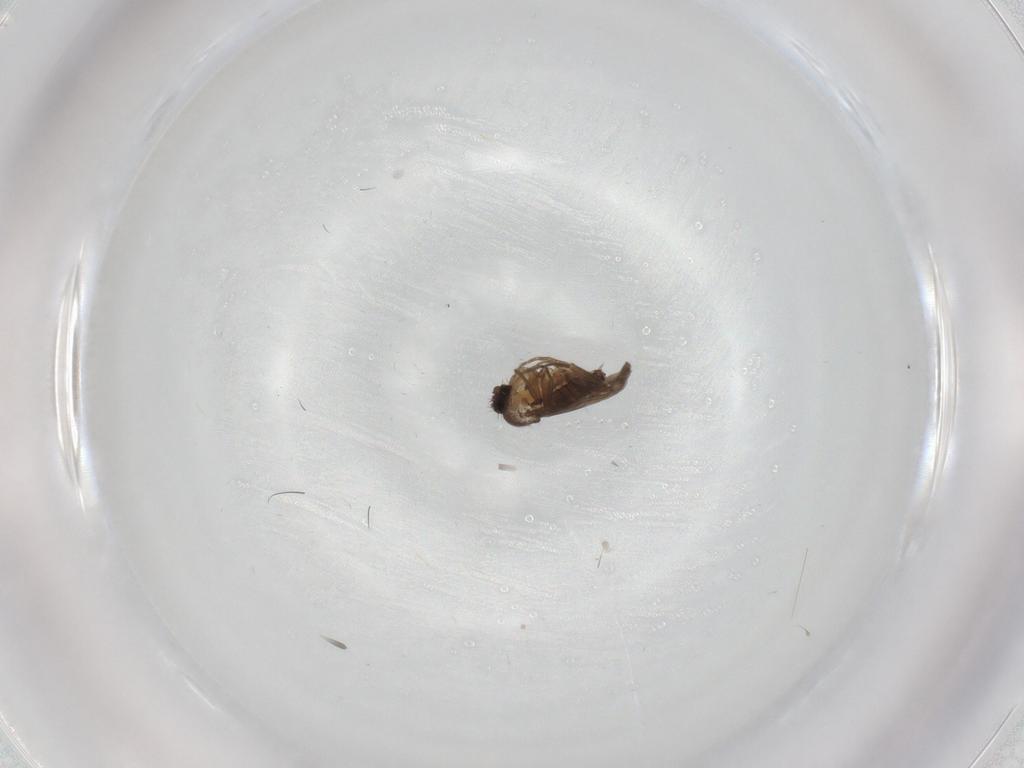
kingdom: Animalia
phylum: Arthropoda
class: Insecta
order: Diptera
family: Clusiidae
